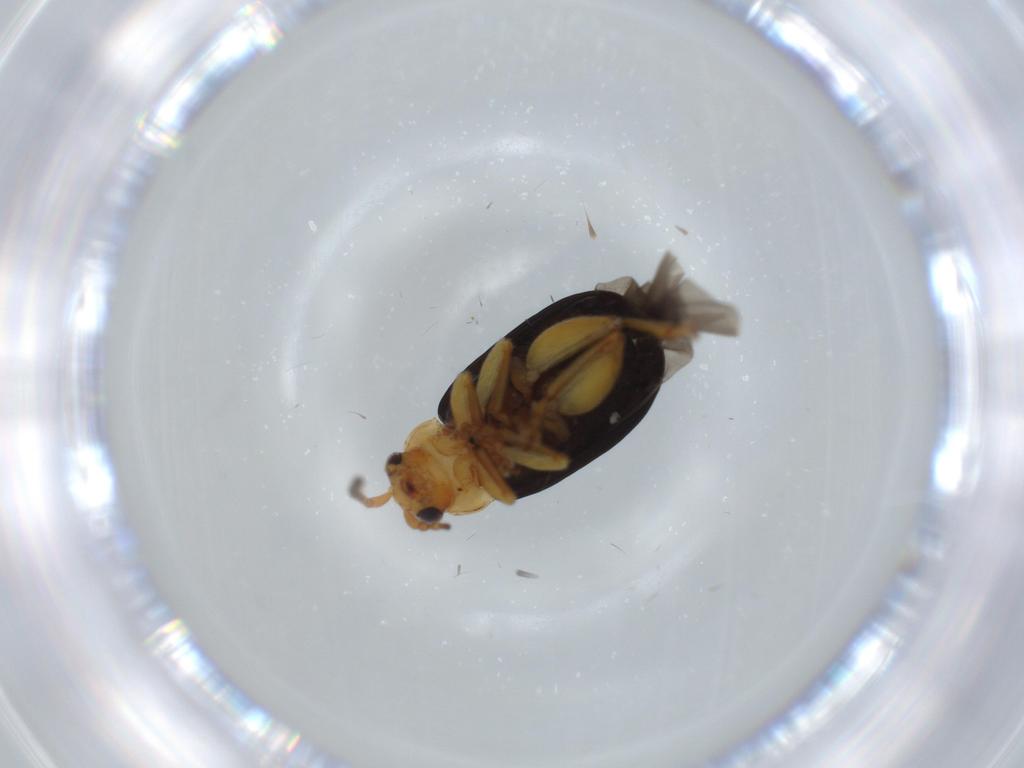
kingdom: Animalia
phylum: Arthropoda
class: Insecta
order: Coleoptera
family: Chrysomelidae
